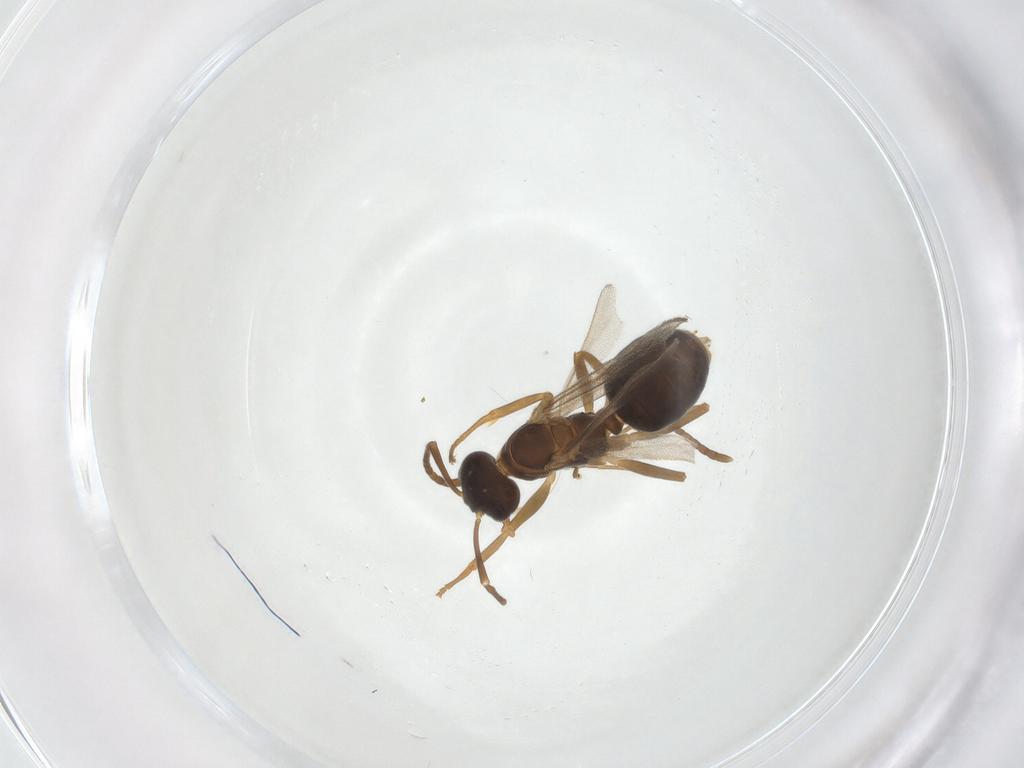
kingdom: Animalia
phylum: Arthropoda
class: Insecta
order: Hymenoptera
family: Formicidae
